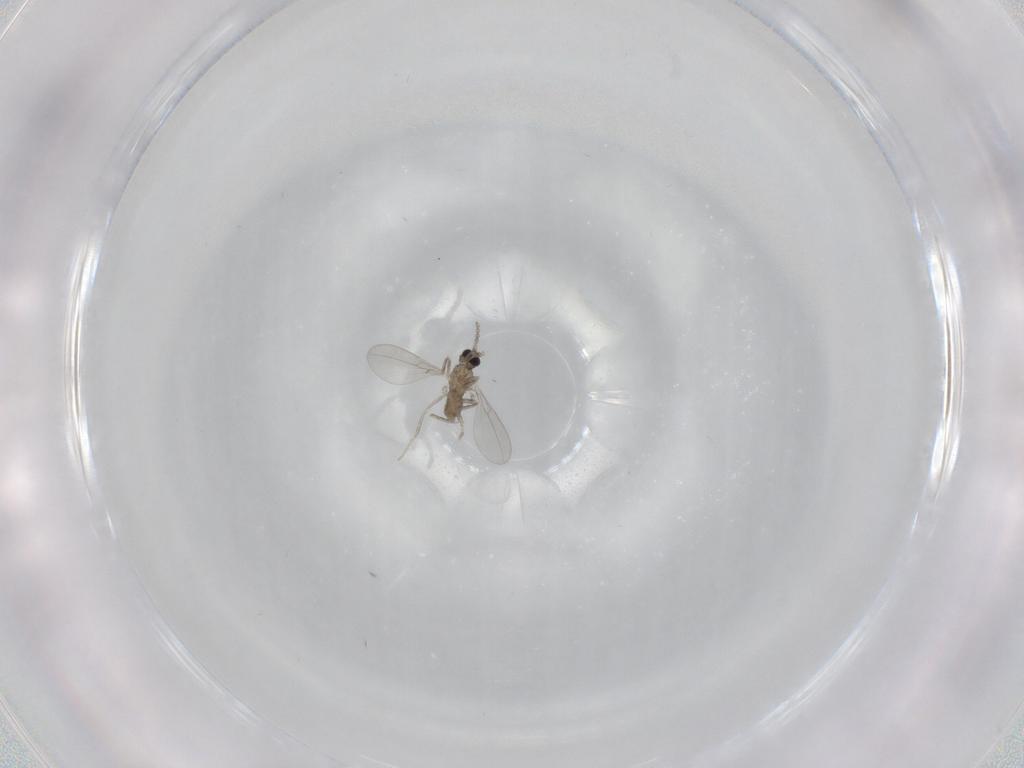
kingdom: Animalia
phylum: Arthropoda
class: Insecta
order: Diptera
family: Cecidomyiidae
